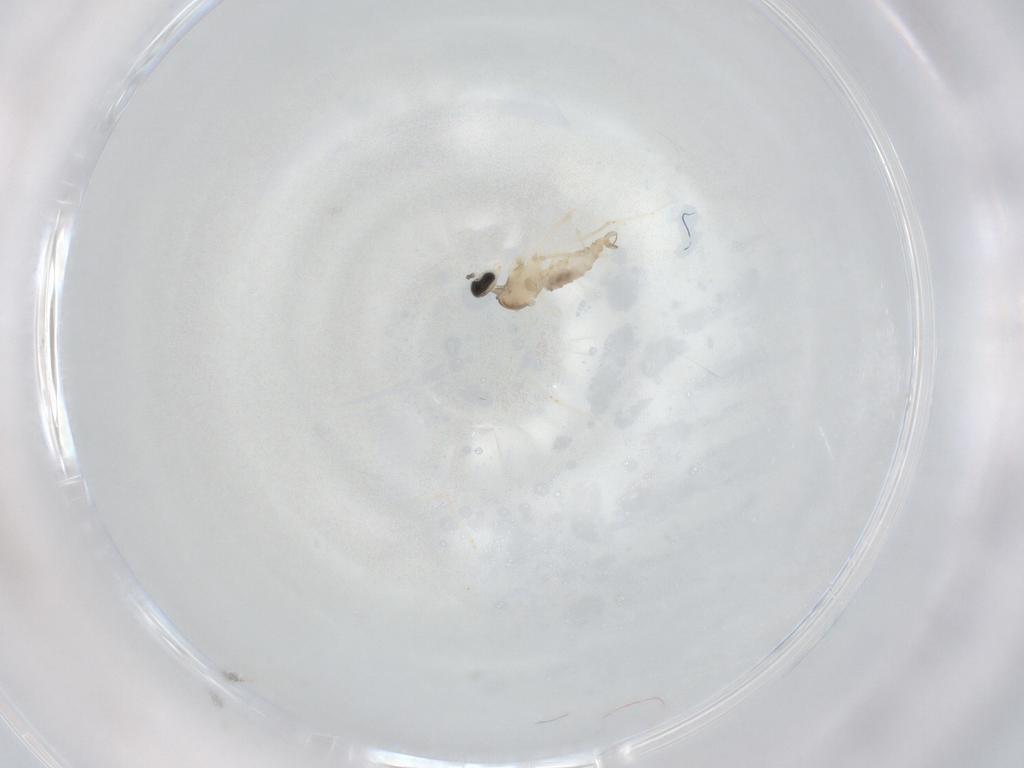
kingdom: Animalia
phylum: Arthropoda
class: Insecta
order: Diptera
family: Cecidomyiidae
